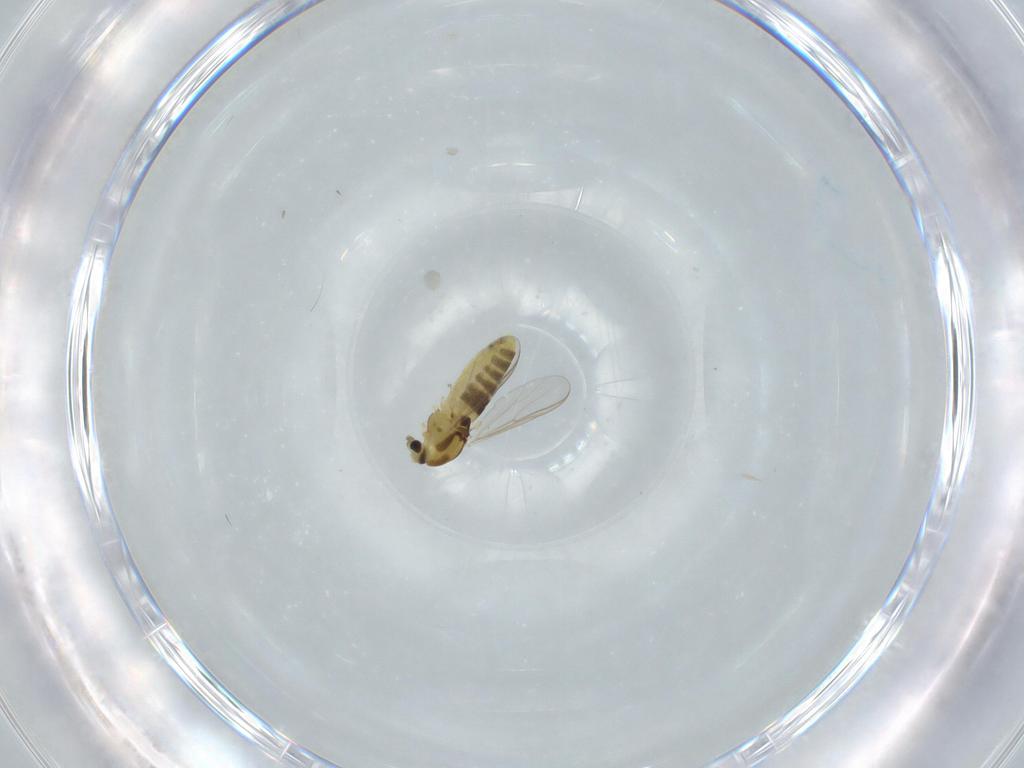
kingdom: Animalia
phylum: Arthropoda
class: Insecta
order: Diptera
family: Chironomidae
